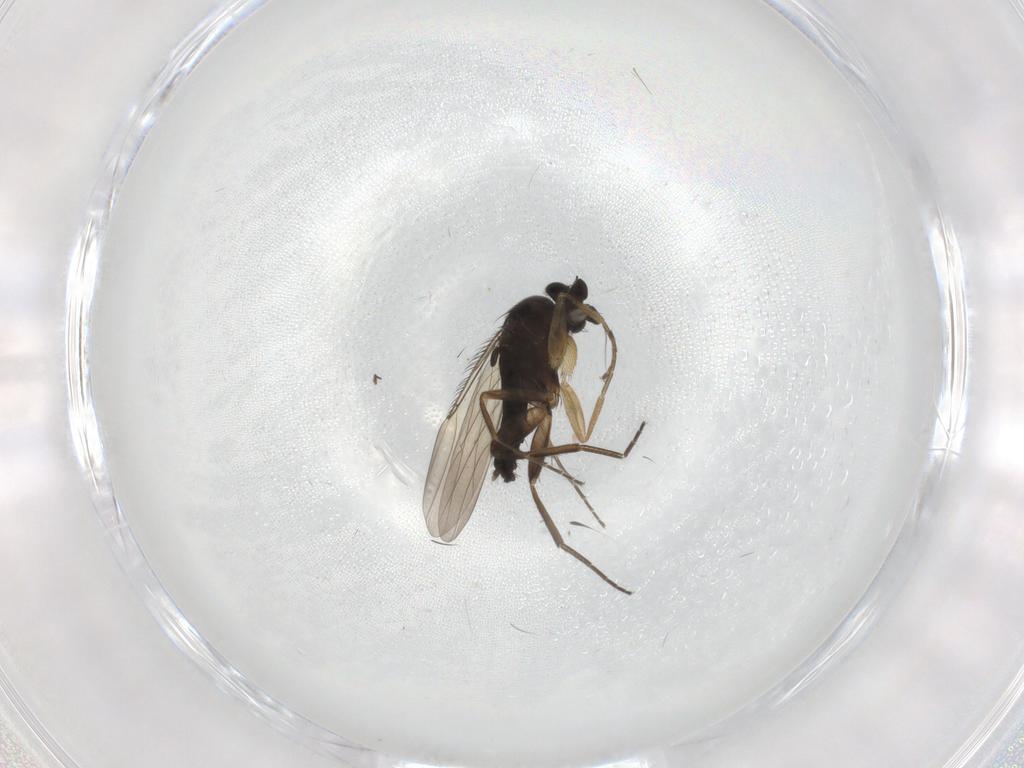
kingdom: Animalia
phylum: Arthropoda
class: Insecta
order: Diptera
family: Phoridae
